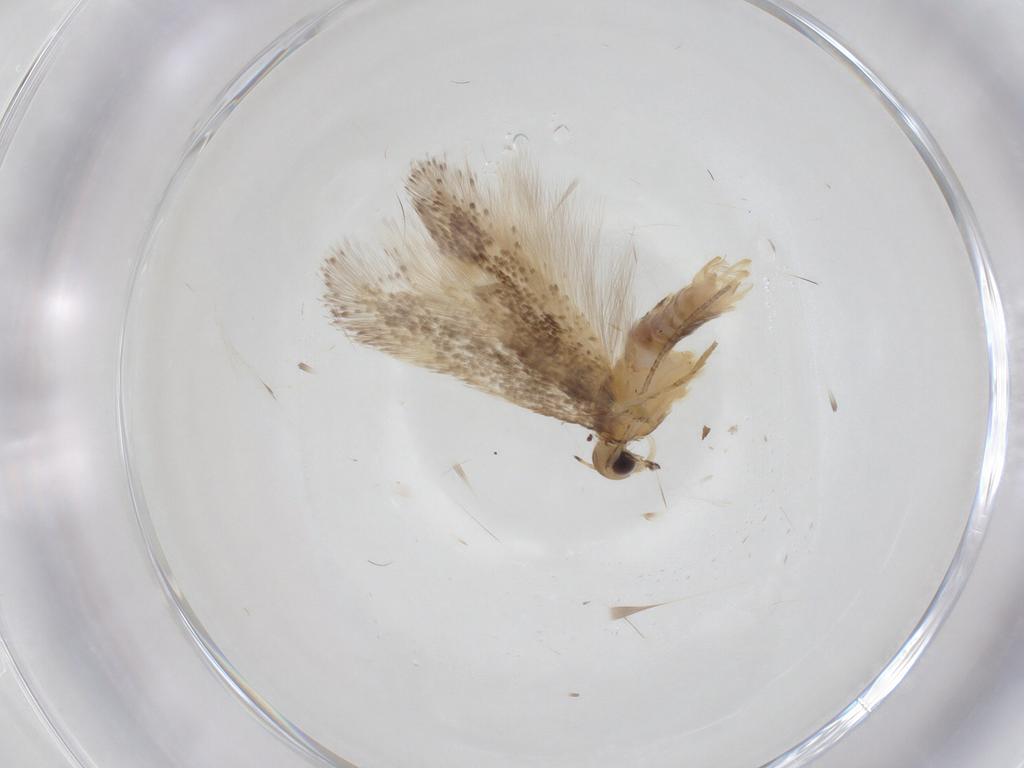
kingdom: Animalia
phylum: Arthropoda
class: Insecta
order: Lepidoptera
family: Gelechiidae
